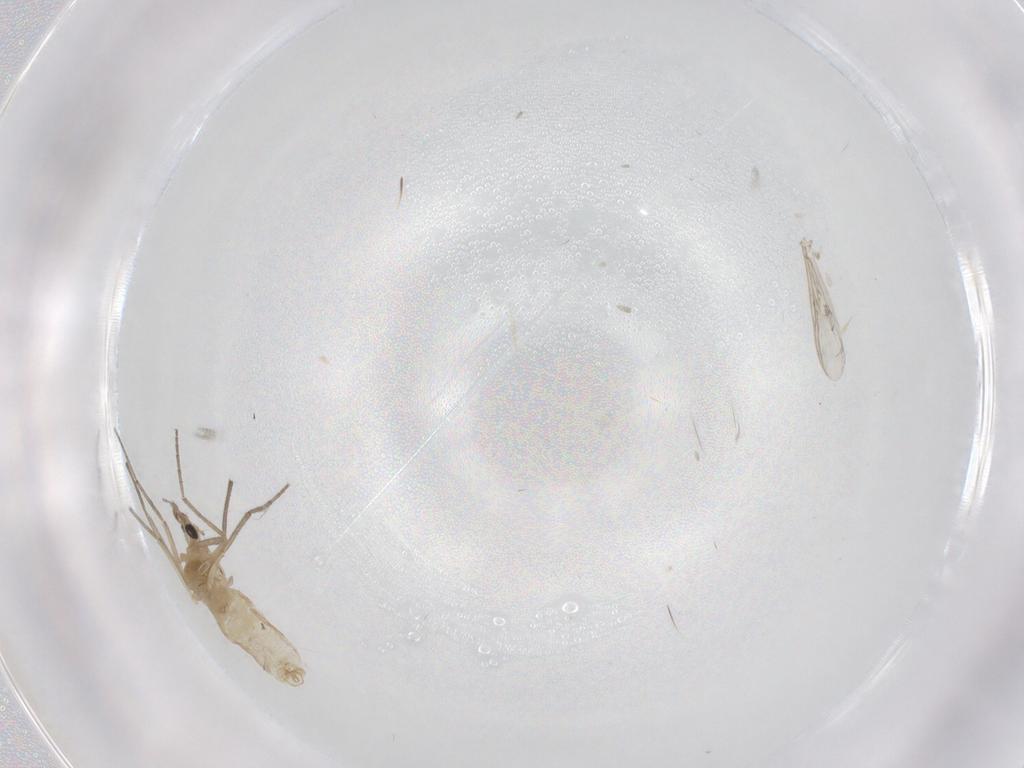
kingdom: Animalia
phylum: Arthropoda
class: Insecta
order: Diptera
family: Chironomidae
